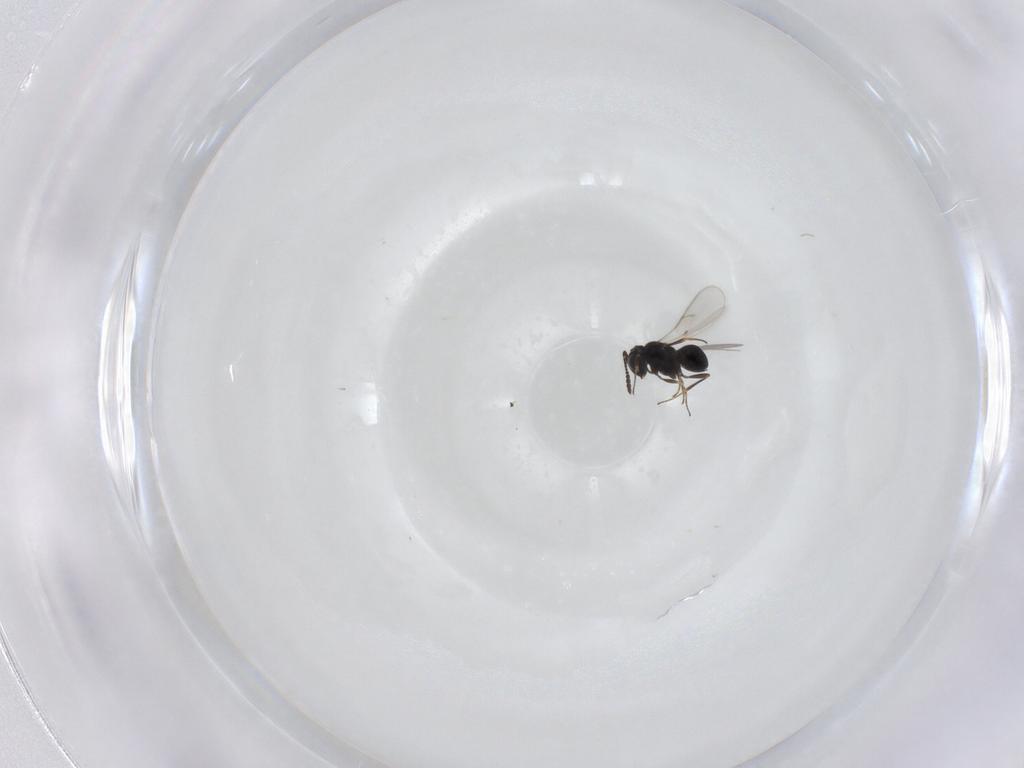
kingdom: Animalia
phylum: Arthropoda
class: Insecta
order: Hymenoptera
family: Scelionidae
